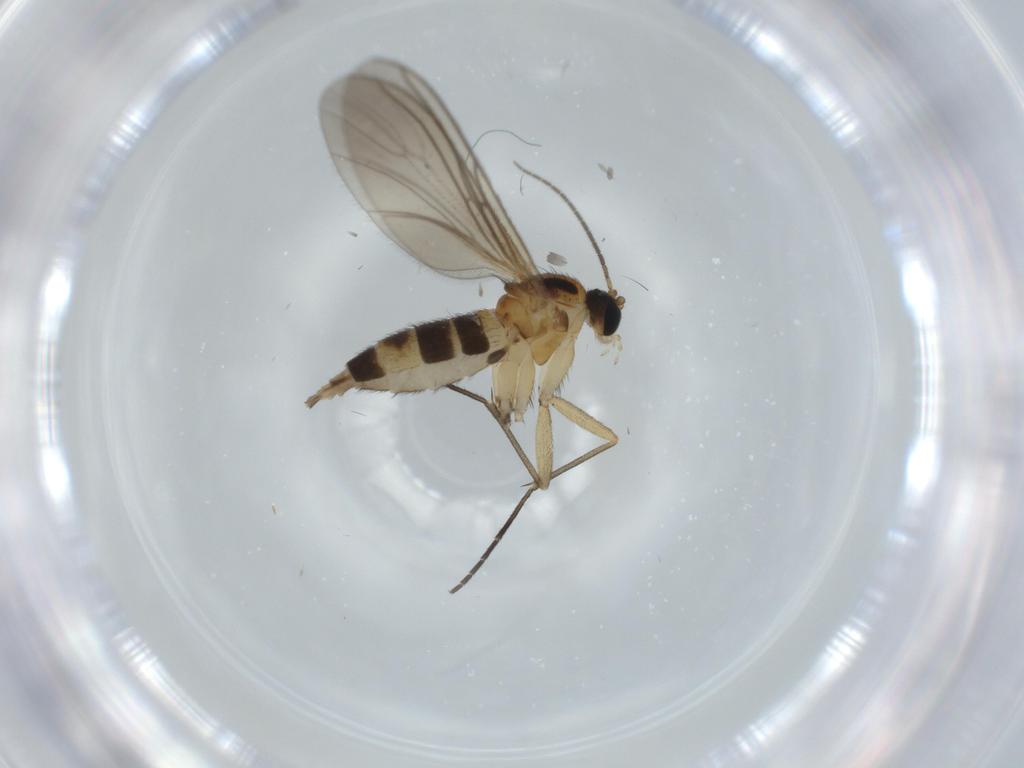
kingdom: Animalia
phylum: Arthropoda
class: Insecta
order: Diptera
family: Sciaridae
